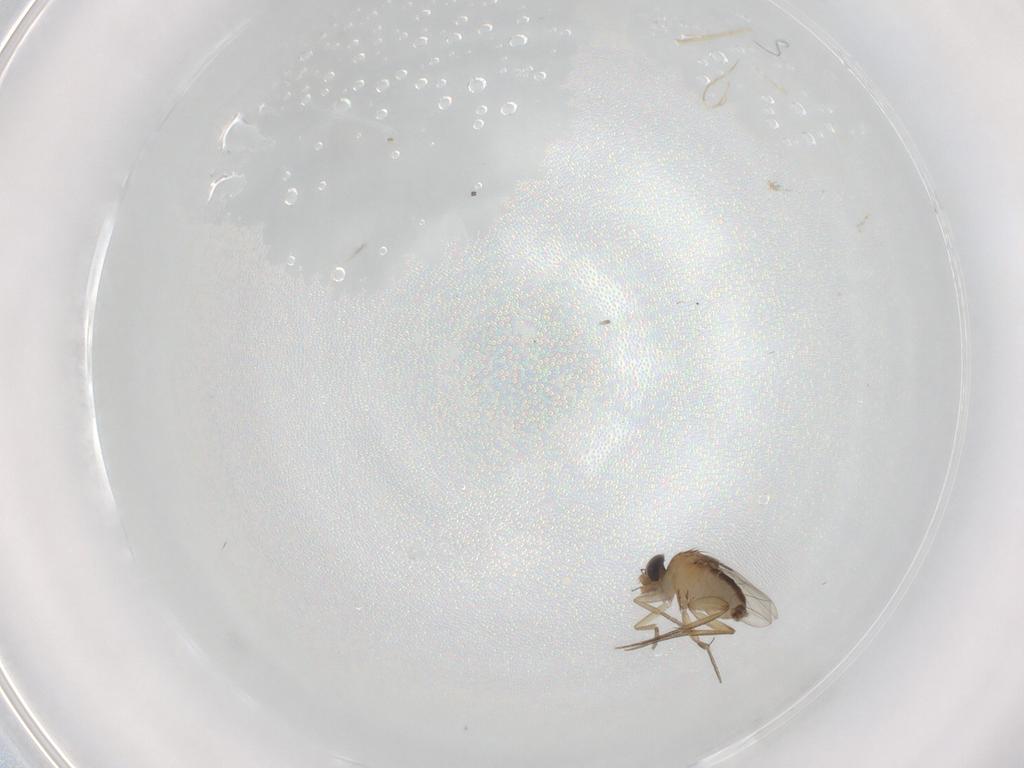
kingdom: Animalia
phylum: Arthropoda
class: Insecta
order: Diptera
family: Phoridae
